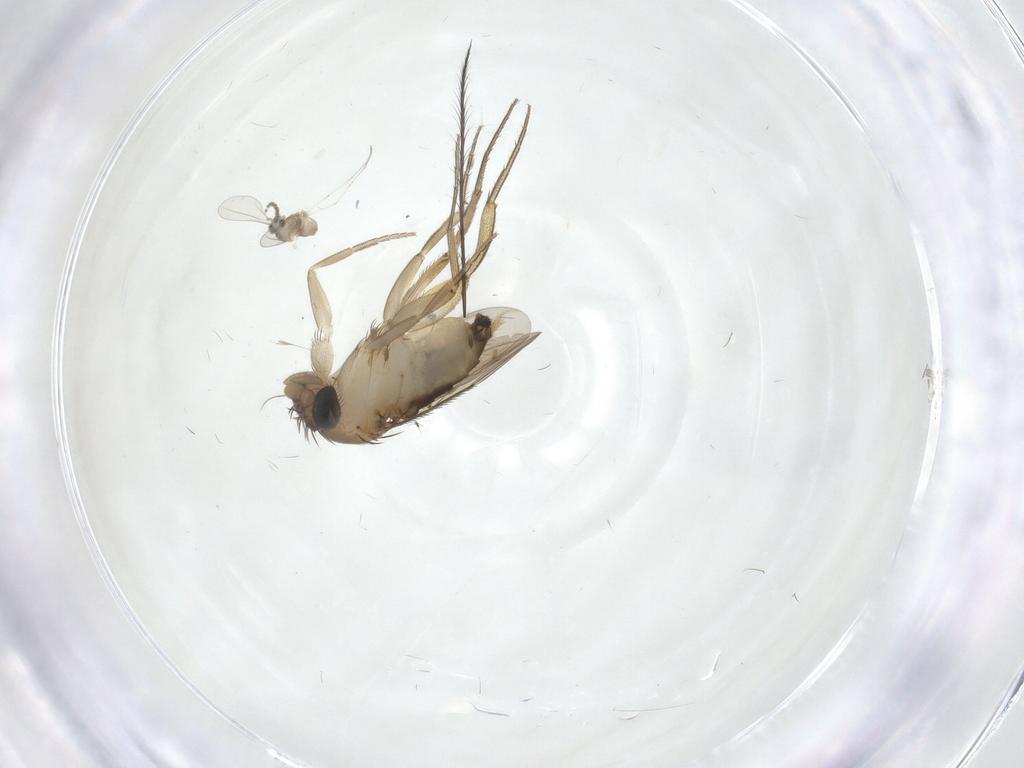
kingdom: Animalia
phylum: Arthropoda
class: Insecta
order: Diptera
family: Phoridae
